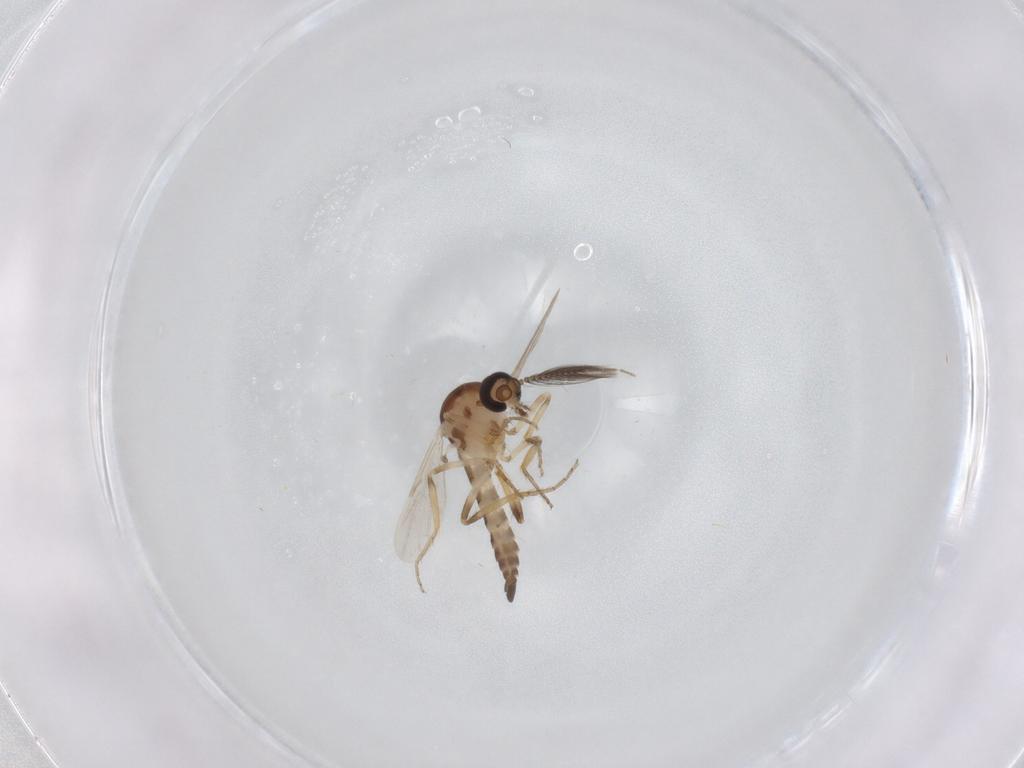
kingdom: Animalia
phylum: Arthropoda
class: Insecta
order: Diptera
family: Ceratopogonidae
